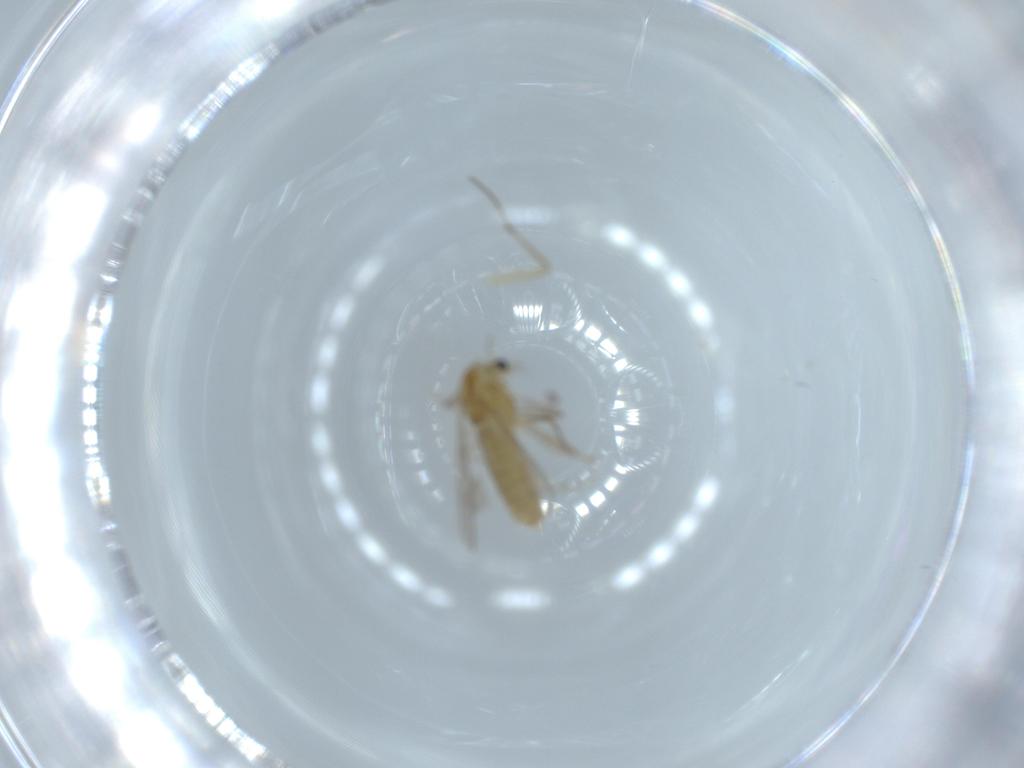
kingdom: Animalia
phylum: Arthropoda
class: Insecta
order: Diptera
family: Chironomidae
